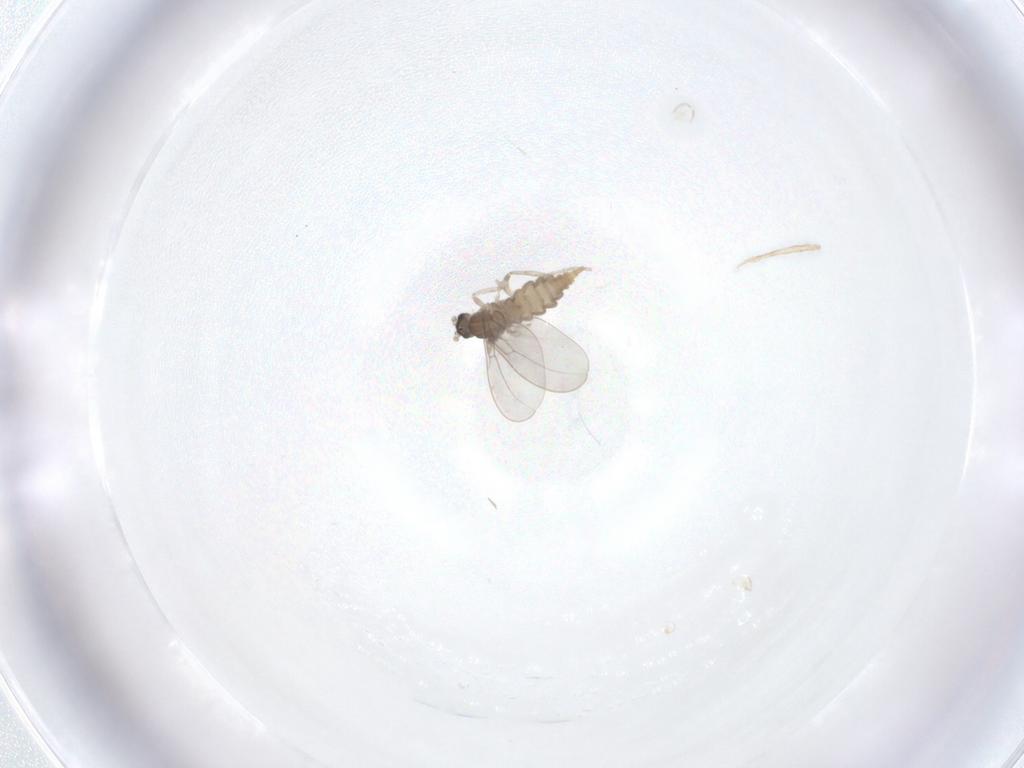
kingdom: Animalia
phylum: Arthropoda
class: Insecta
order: Diptera
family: Cecidomyiidae
